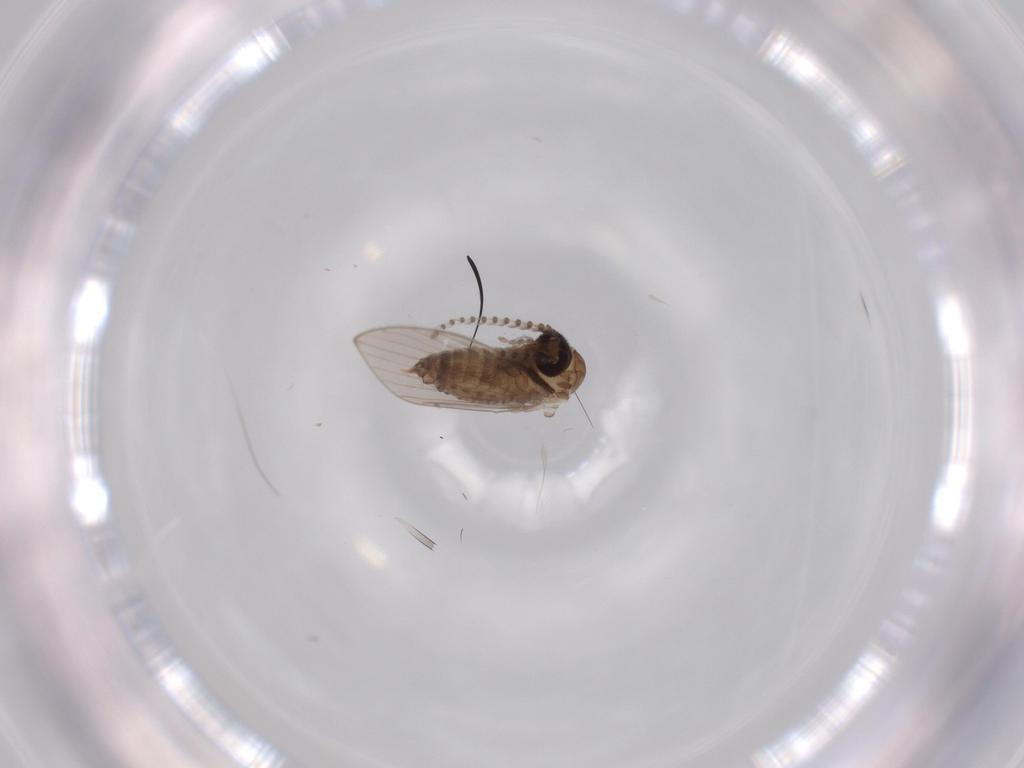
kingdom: Animalia
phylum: Arthropoda
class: Insecta
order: Diptera
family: Psychodidae
